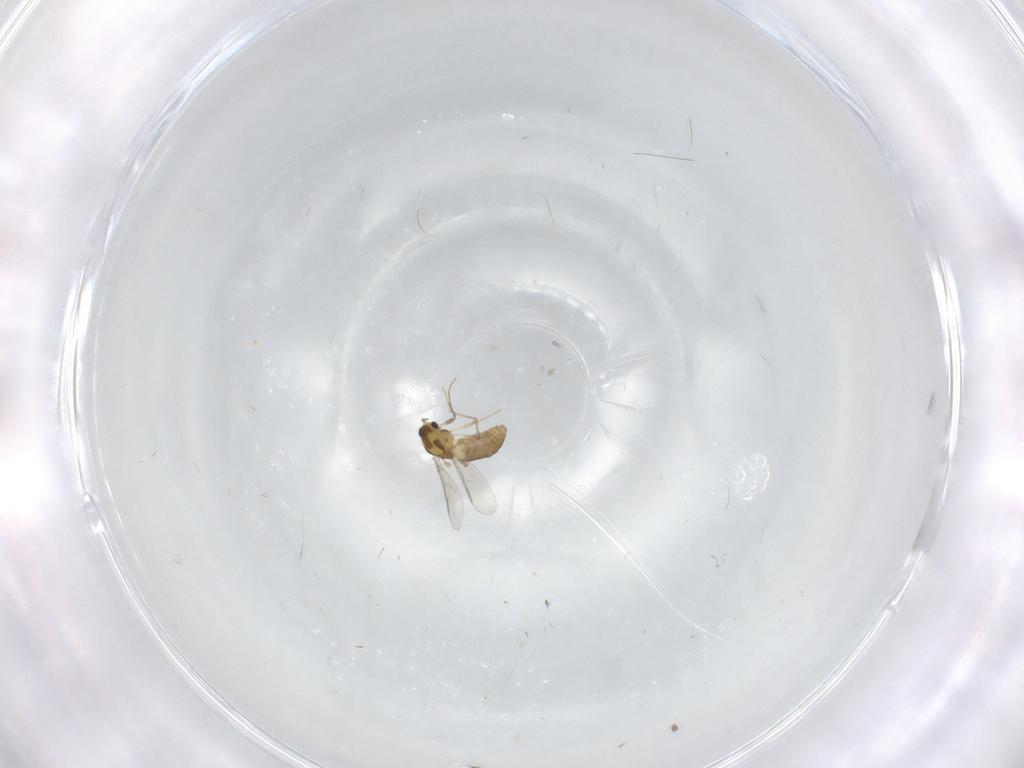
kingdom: Animalia
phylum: Arthropoda
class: Insecta
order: Diptera
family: Chironomidae
